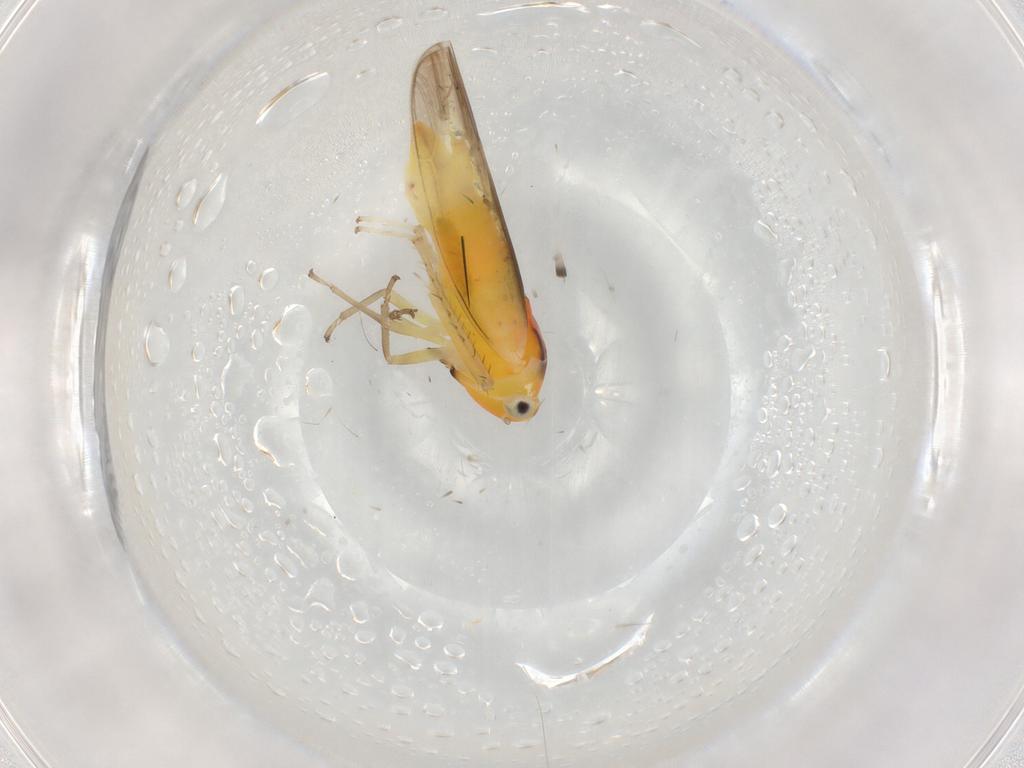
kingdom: Animalia
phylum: Arthropoda
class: Insecta
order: Hemiptera
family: Cicadellidae
